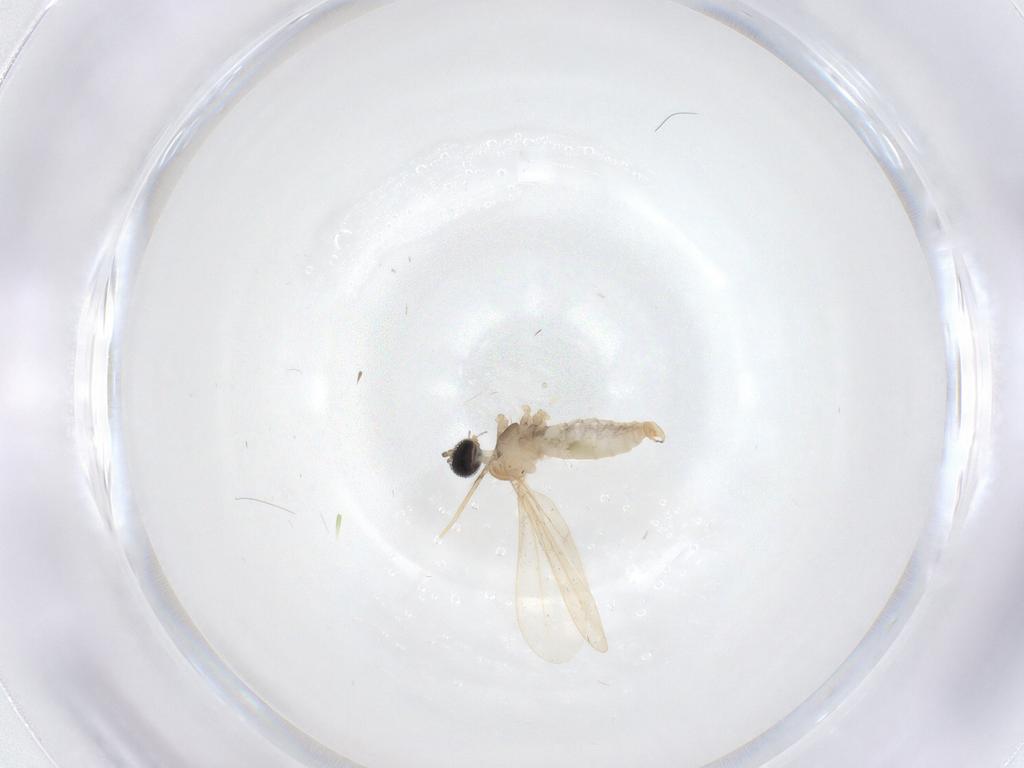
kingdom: Animalia
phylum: Arthropoda
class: Insecta
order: Diptera
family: Cecidomyiidae
